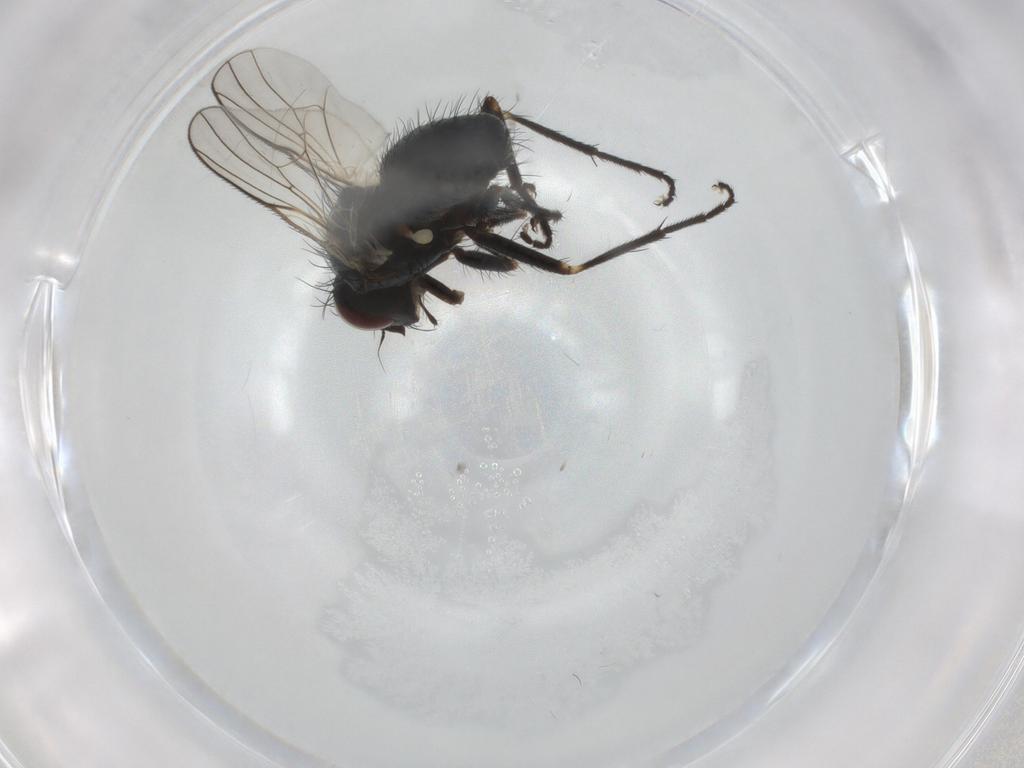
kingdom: Animalia
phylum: Arthropoda
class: Insecta
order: Diptera
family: Muscidae
